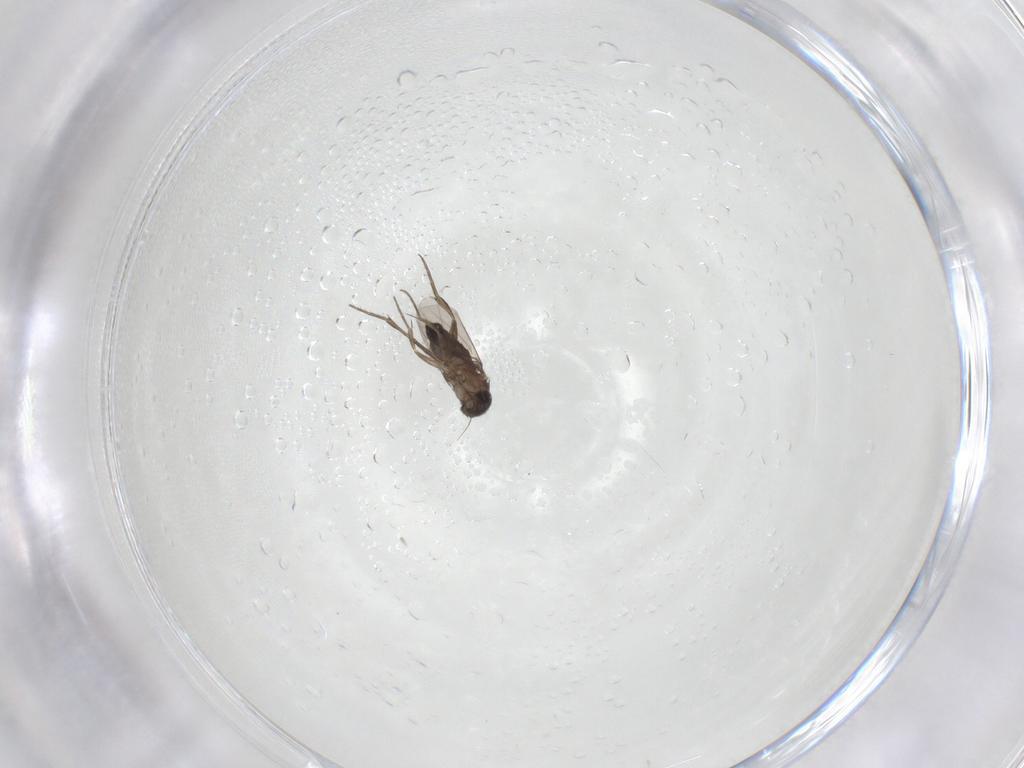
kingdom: Animalia
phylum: Arthropoda
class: Insecta
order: Diptera
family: Phoridae
